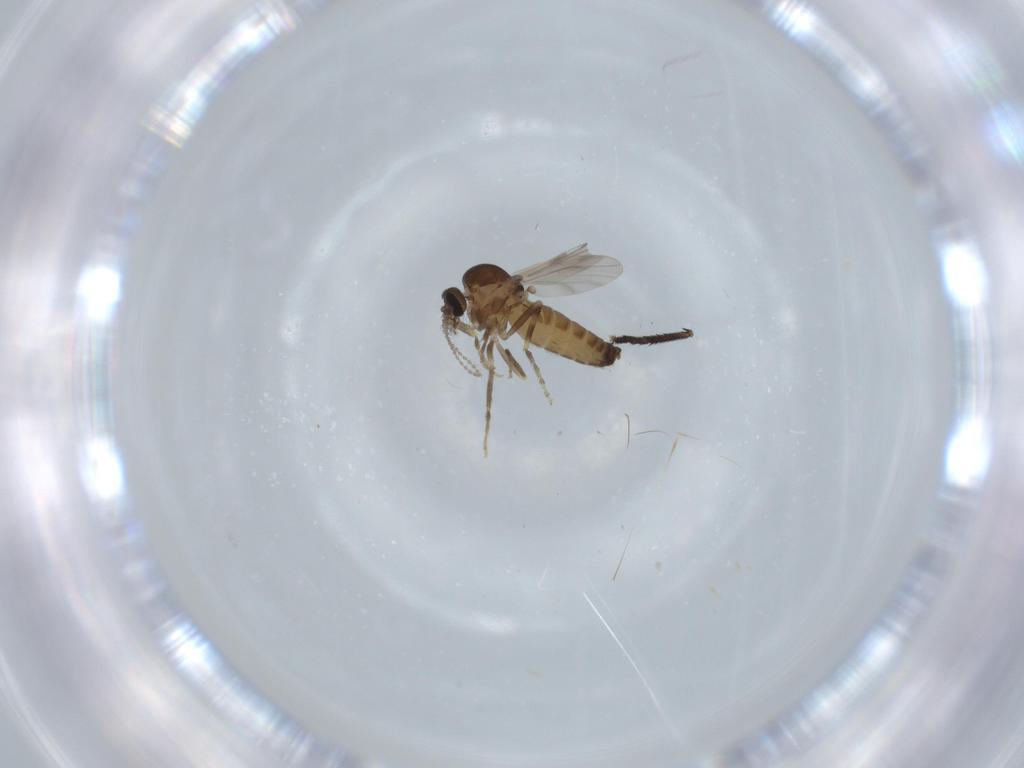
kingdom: Animalia
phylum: Arthropoda
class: Insecta
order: Diptera
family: Ceratopogonidae
